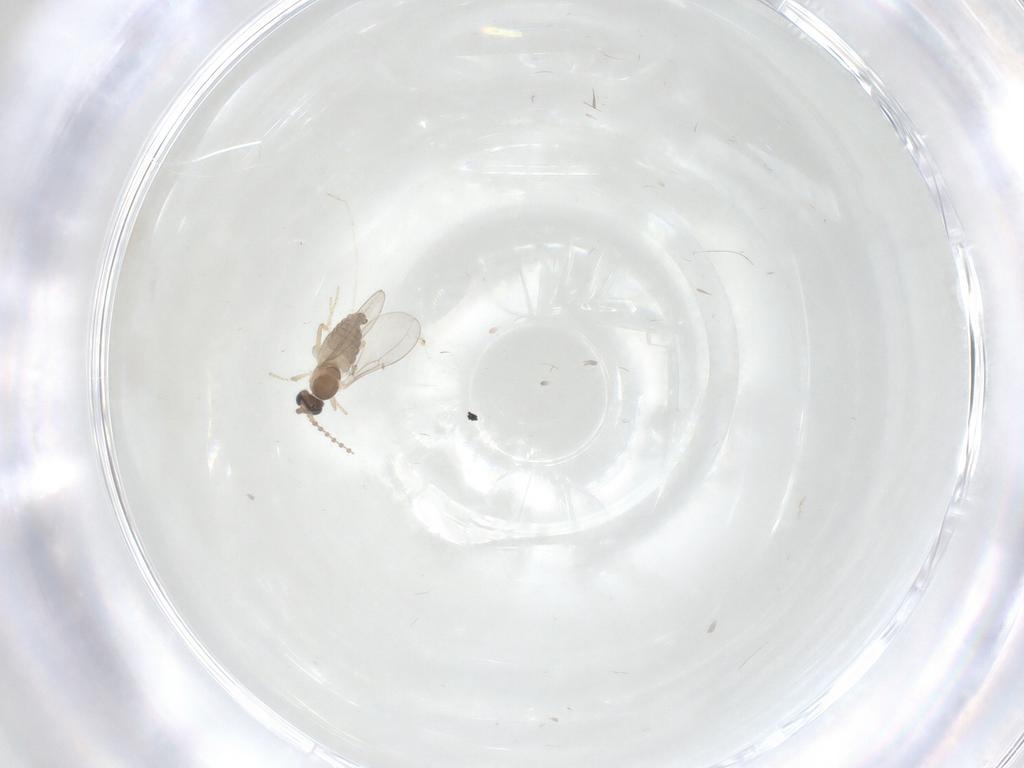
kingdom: Animalia
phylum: Arthropoda
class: Insecta
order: Diptera
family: Cecidomyiidae
